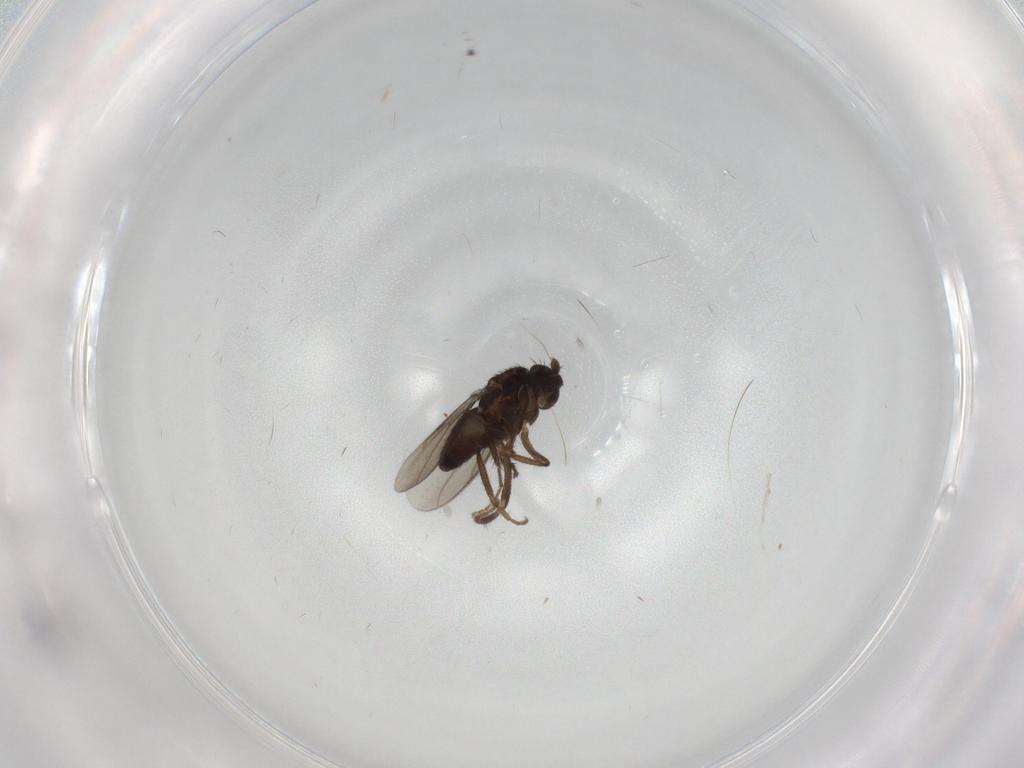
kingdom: Animalia
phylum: Arthropoda
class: Insecta
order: Diptera
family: Sphaeroceridae
